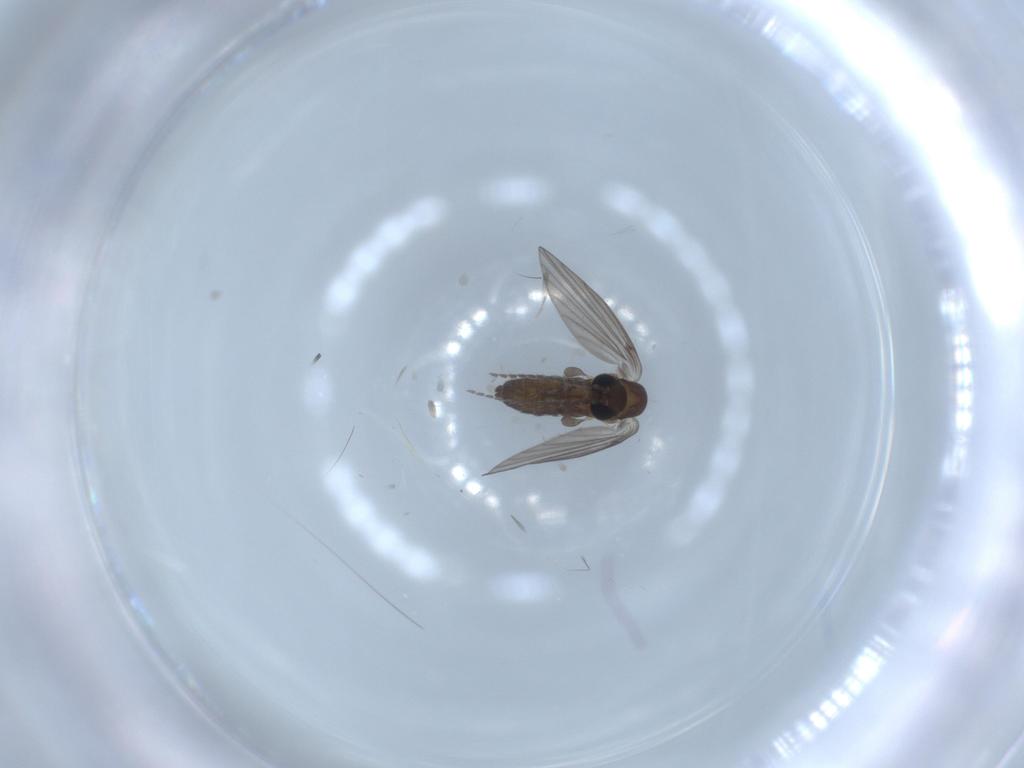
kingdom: Animalia
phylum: Arthropoda
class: Insecta
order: Diptera
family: Psychodidae
